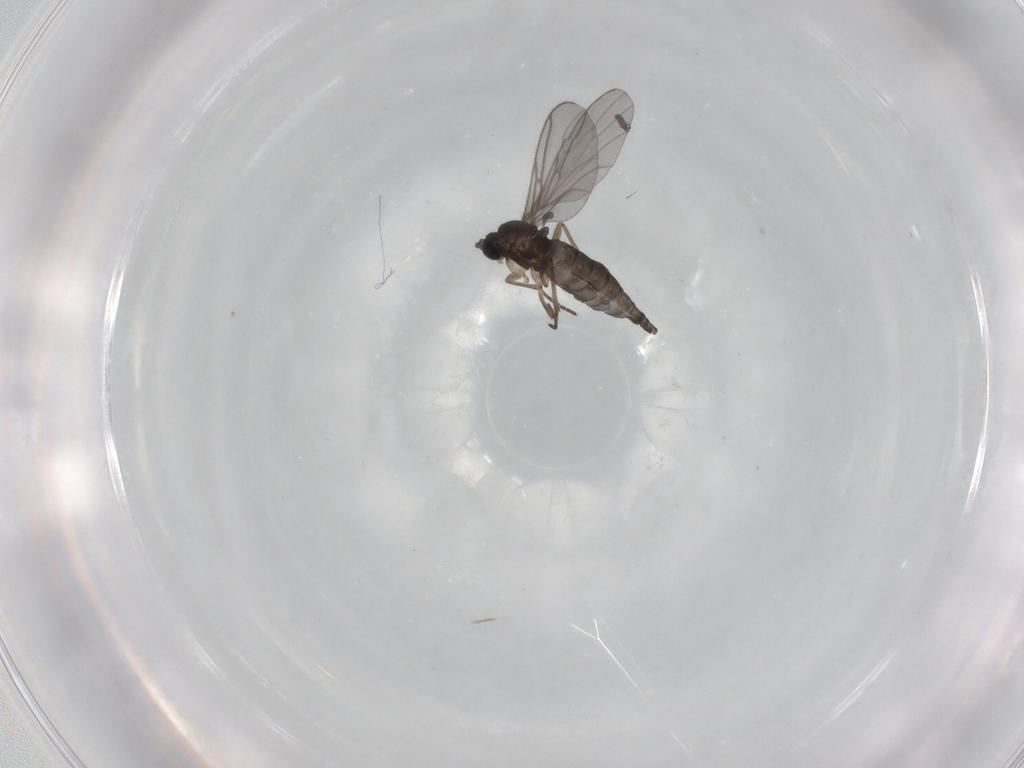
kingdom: Animalia
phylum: Arthropoda
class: Insecta
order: Diptera
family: Sciaridae
